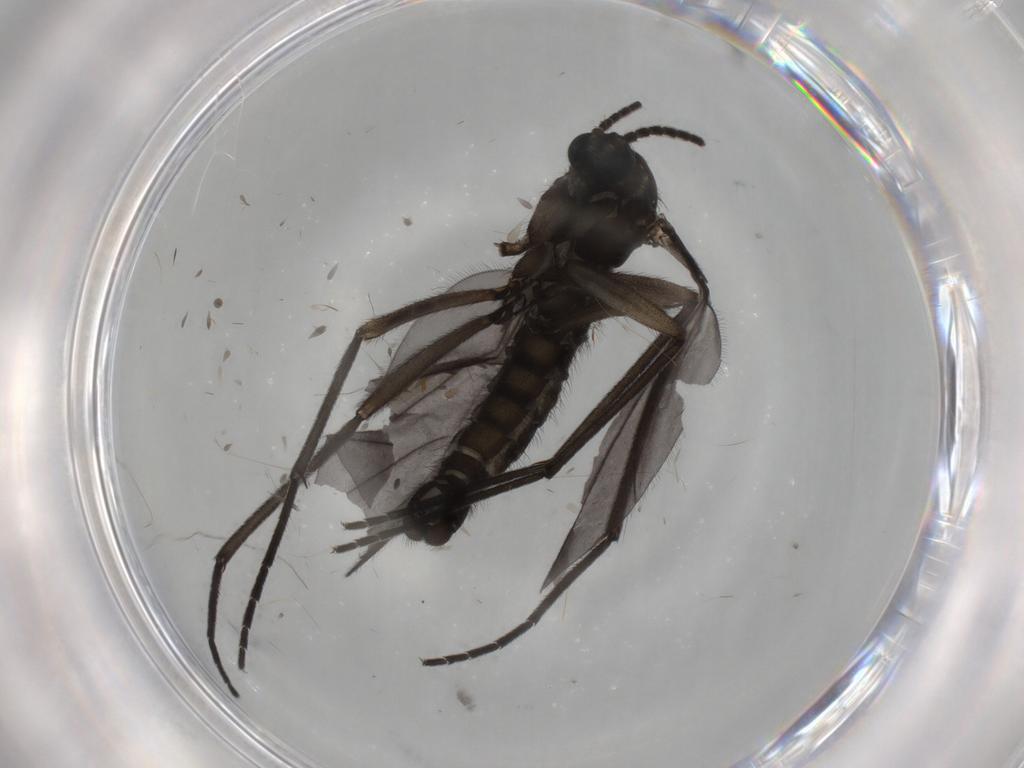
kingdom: Animalia
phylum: Arthropoda
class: Insecta
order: Diptera
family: Sciaridae
